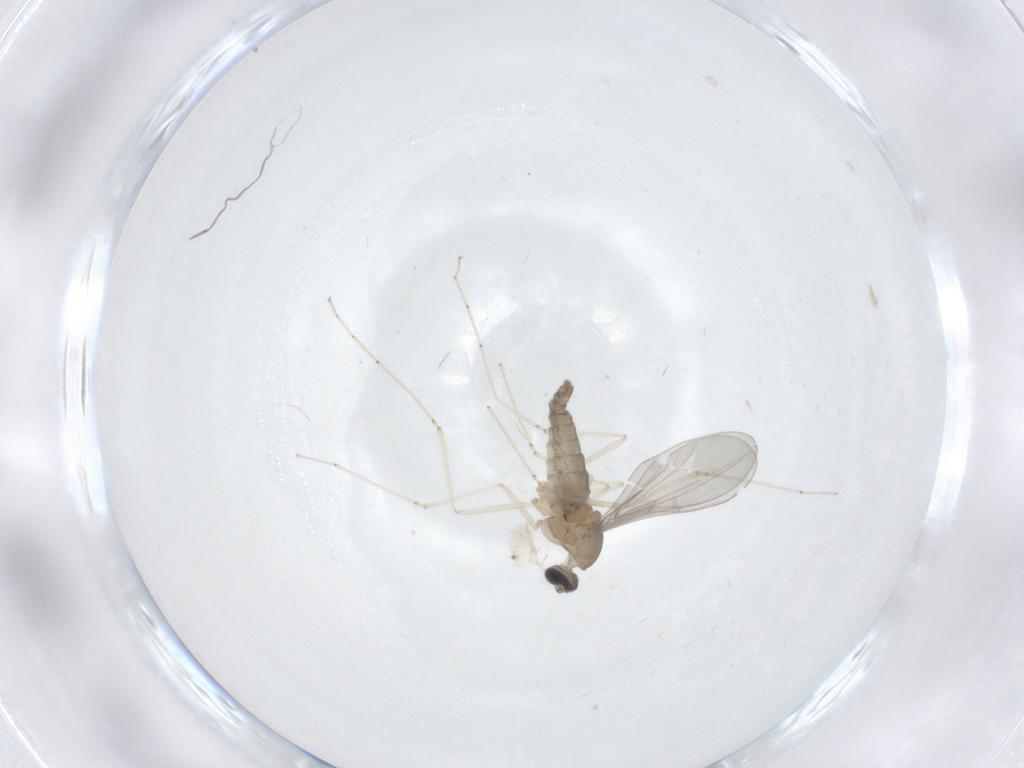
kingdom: Animalia
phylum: Arthropoda
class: Insecta
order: Diptera
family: Cecidomyiidae
